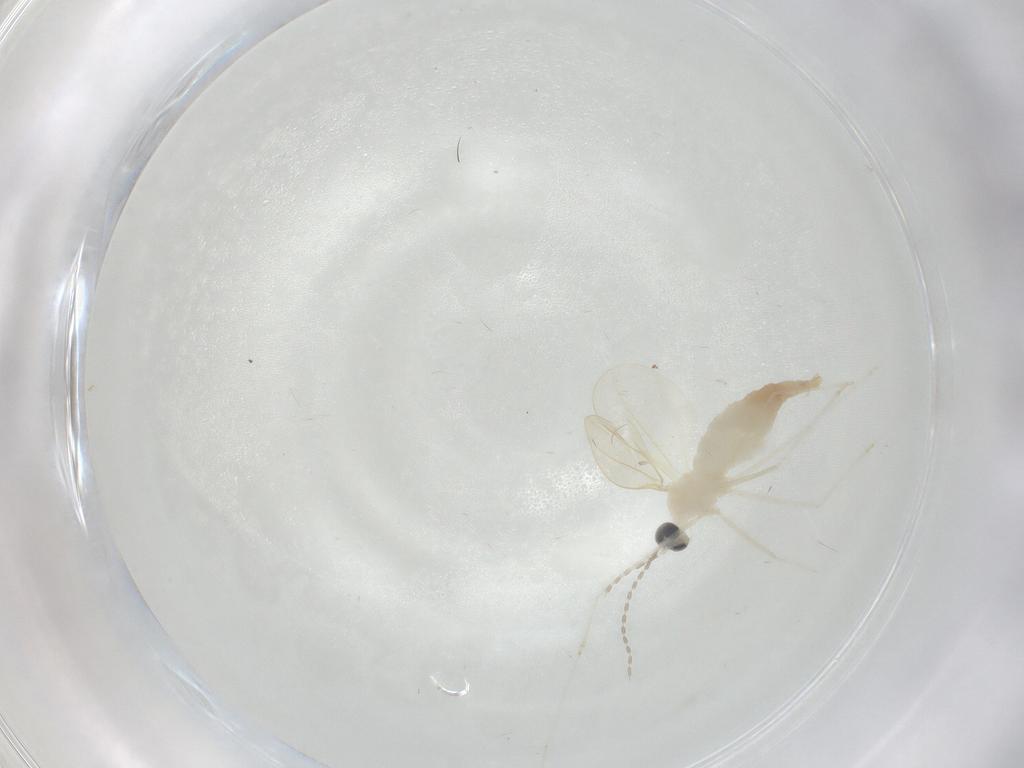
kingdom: Animalia
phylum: Arthropoda
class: Insecta
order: Diptera
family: Cecidomyiidae
